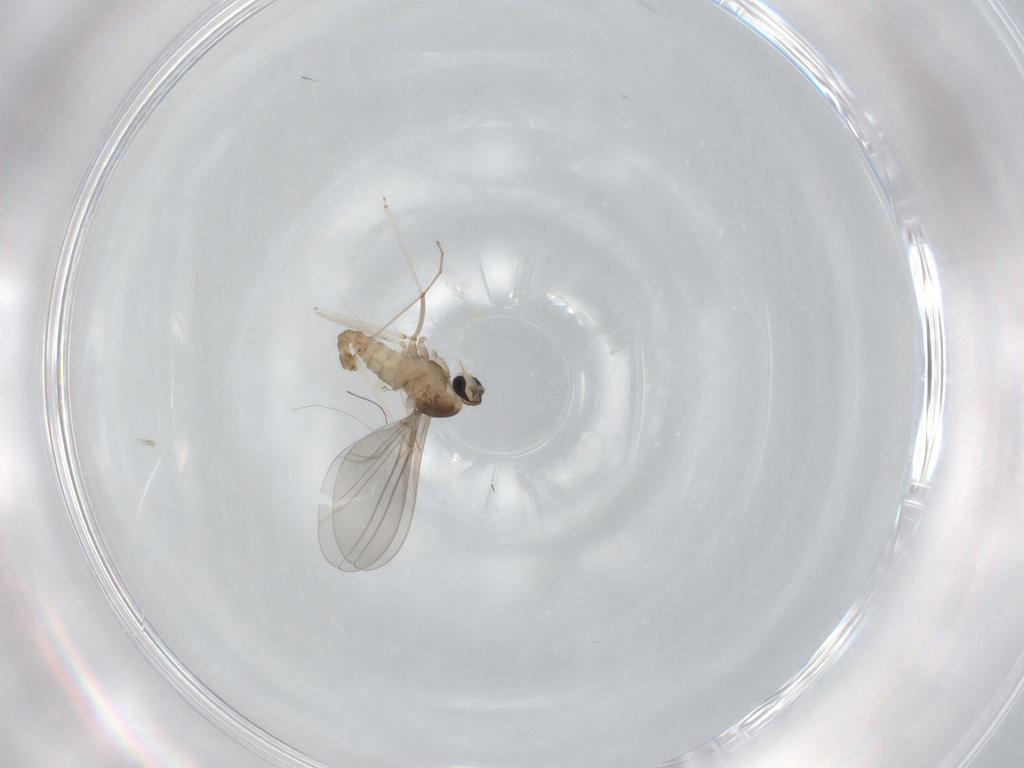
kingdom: Animalia
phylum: Arthropoda
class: Insecta
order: Diptera
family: Cecidomyiidae
